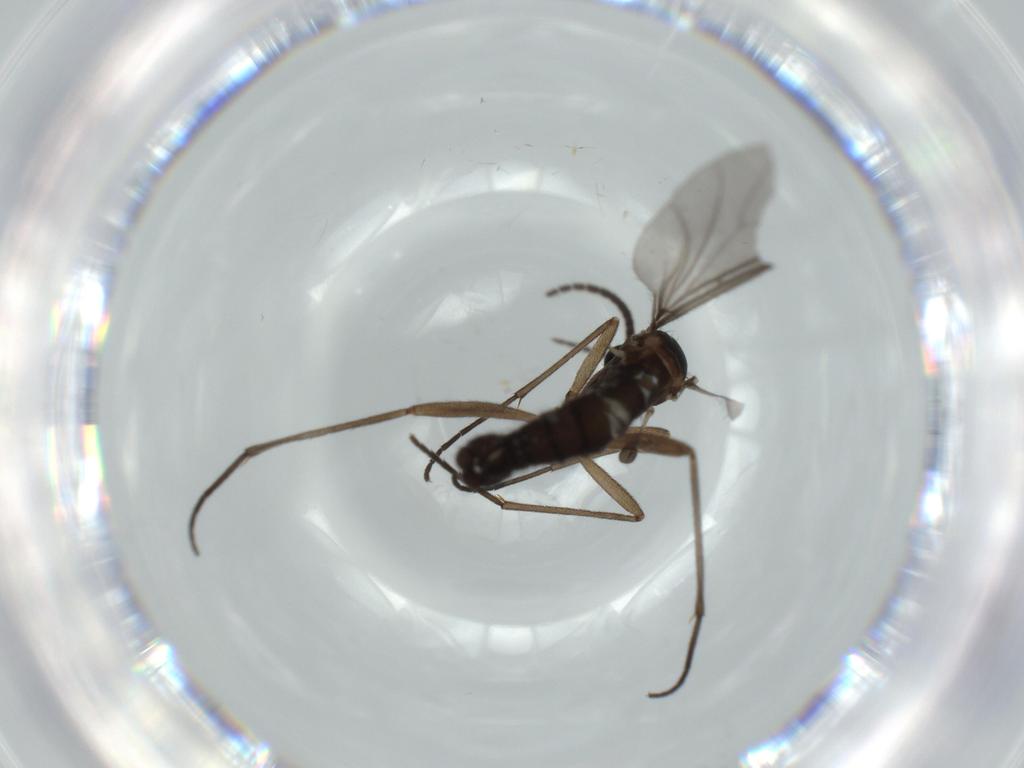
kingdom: Animalia
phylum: Arthropoda
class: Insecta
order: Diptera
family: Sciaridae
